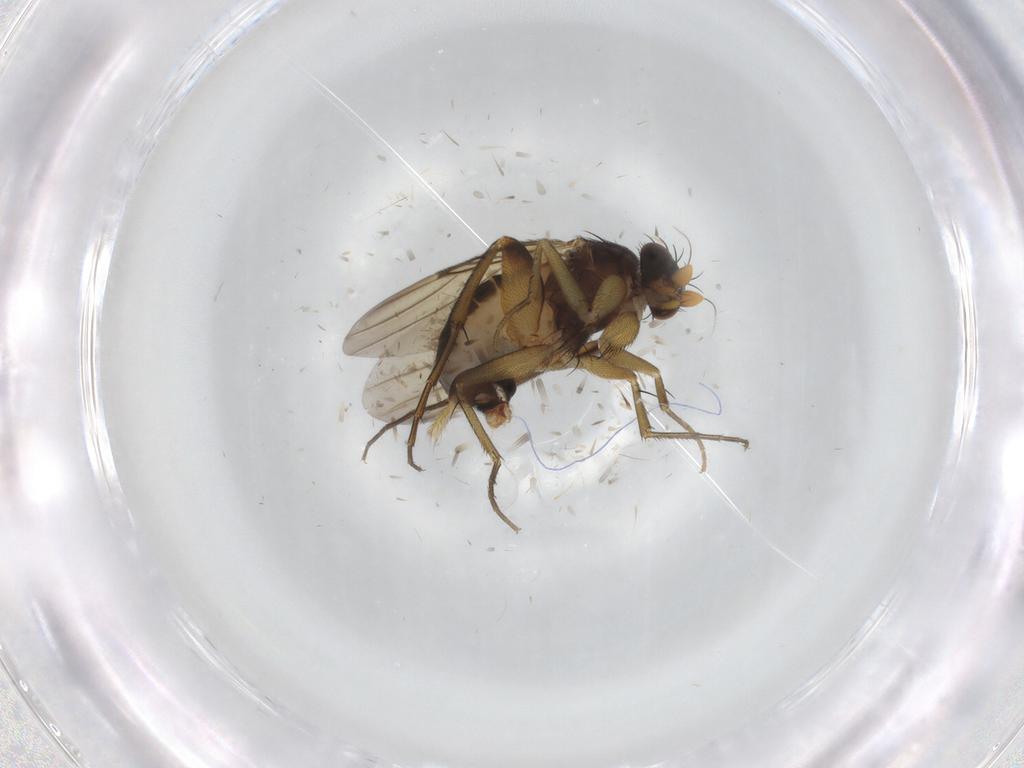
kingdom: Animalia
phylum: Arthropoda
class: Insecta
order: Diptera
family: Phoridae
